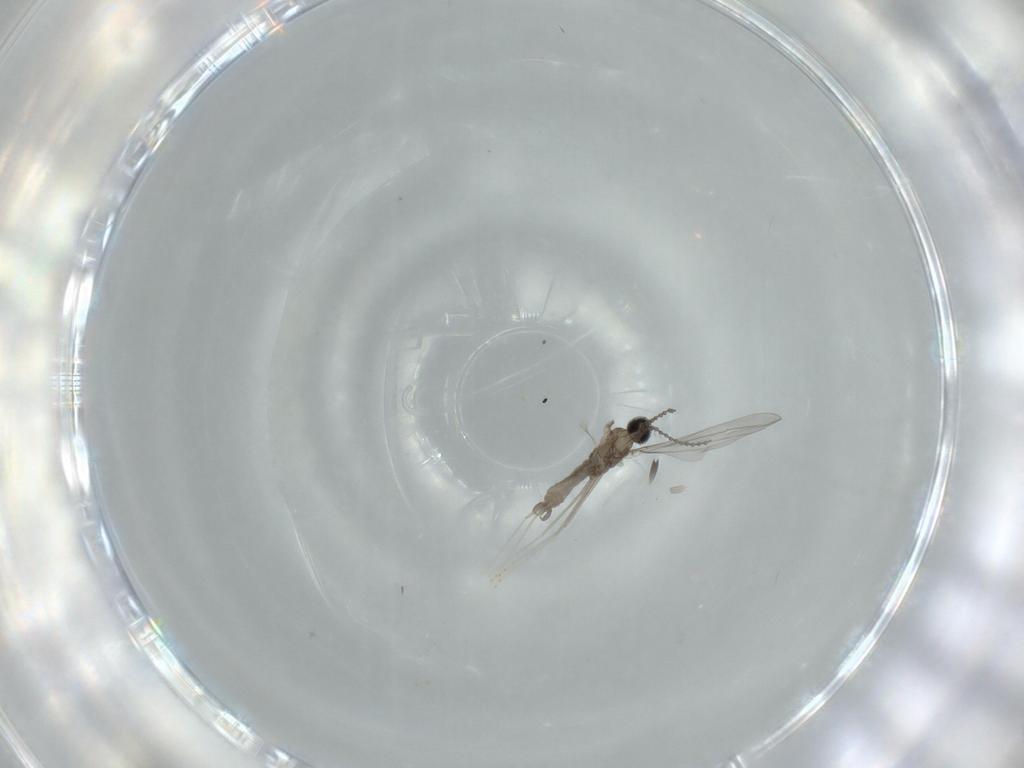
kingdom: Animalia
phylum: Arthropoda
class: Insecta
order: Diptera
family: Cecidomyiidae
